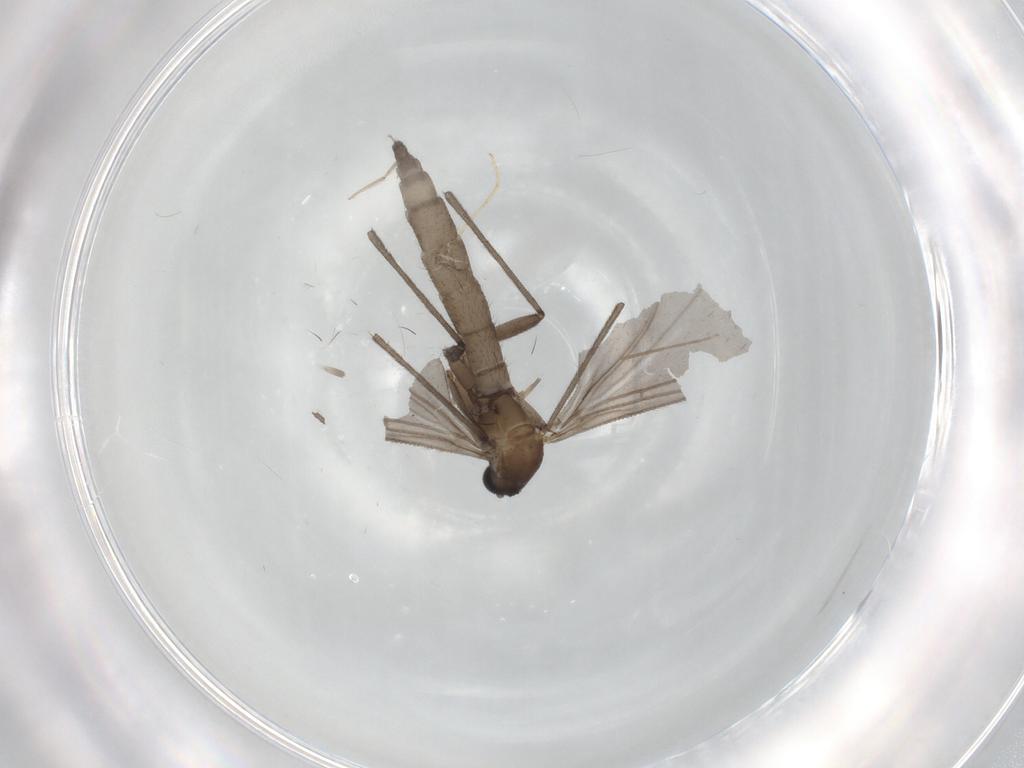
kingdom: Animalia
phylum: Arthropoda
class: Insecta
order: Diptera
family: Sciaridae
